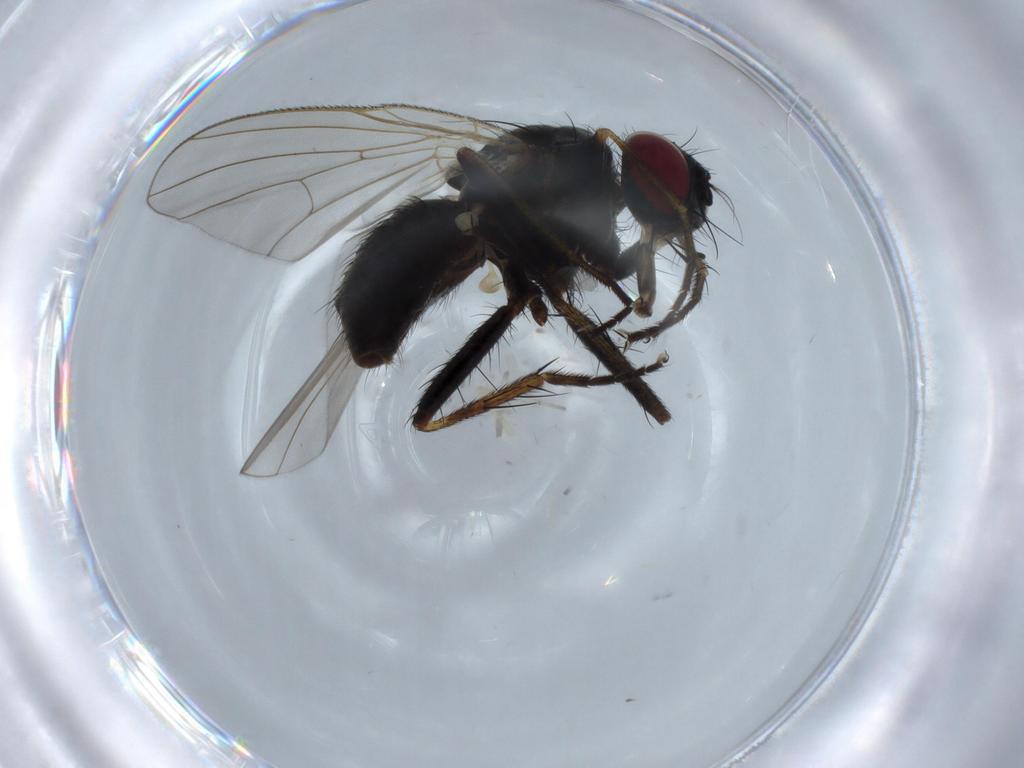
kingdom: Animalia
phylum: Arthropoda
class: Insecta
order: Diptera
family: Chironomidae
